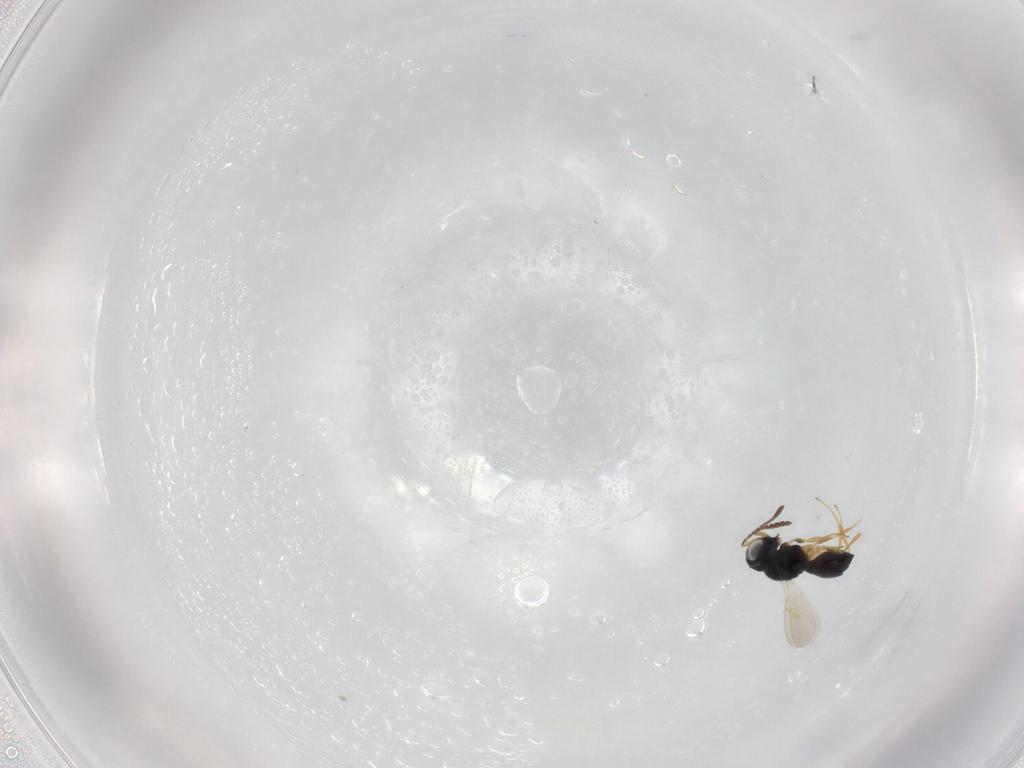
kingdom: Animalia
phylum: Arthropoda
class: Insecta
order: Hymenoptera
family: Scelionidae
